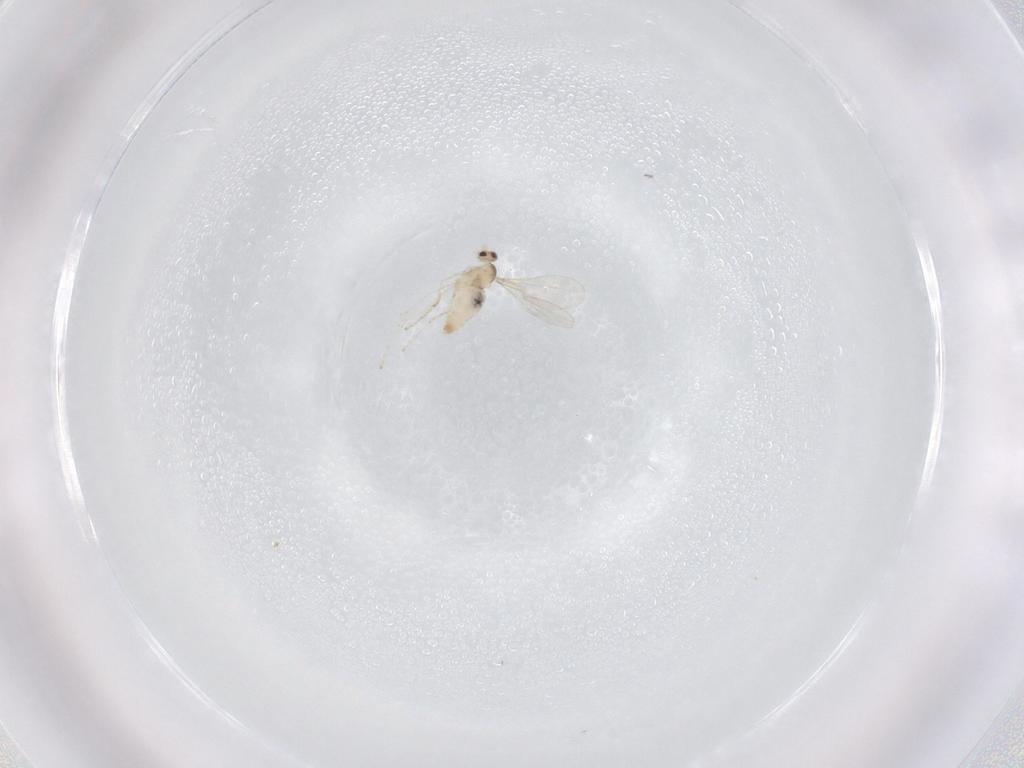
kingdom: Animalia
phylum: Arthropoda
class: Insecta
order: Diptera
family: Cecidomyiidae
